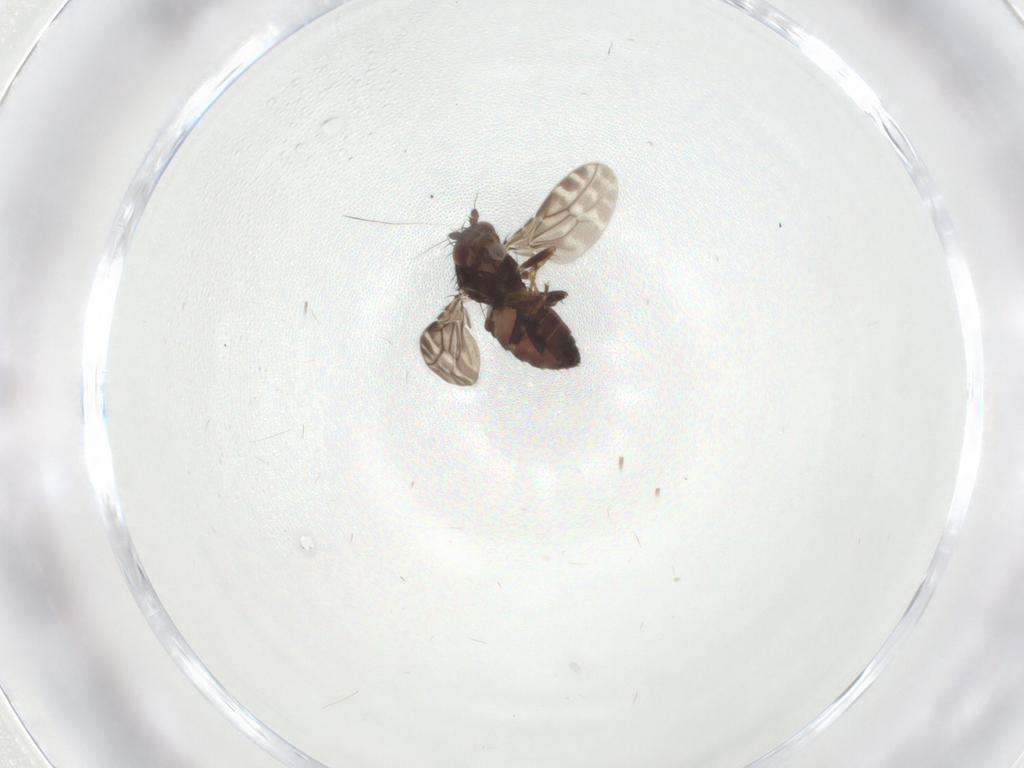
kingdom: Animalia
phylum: Arthropoda
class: Insecta
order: Diptera
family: Sphaeroceridae
